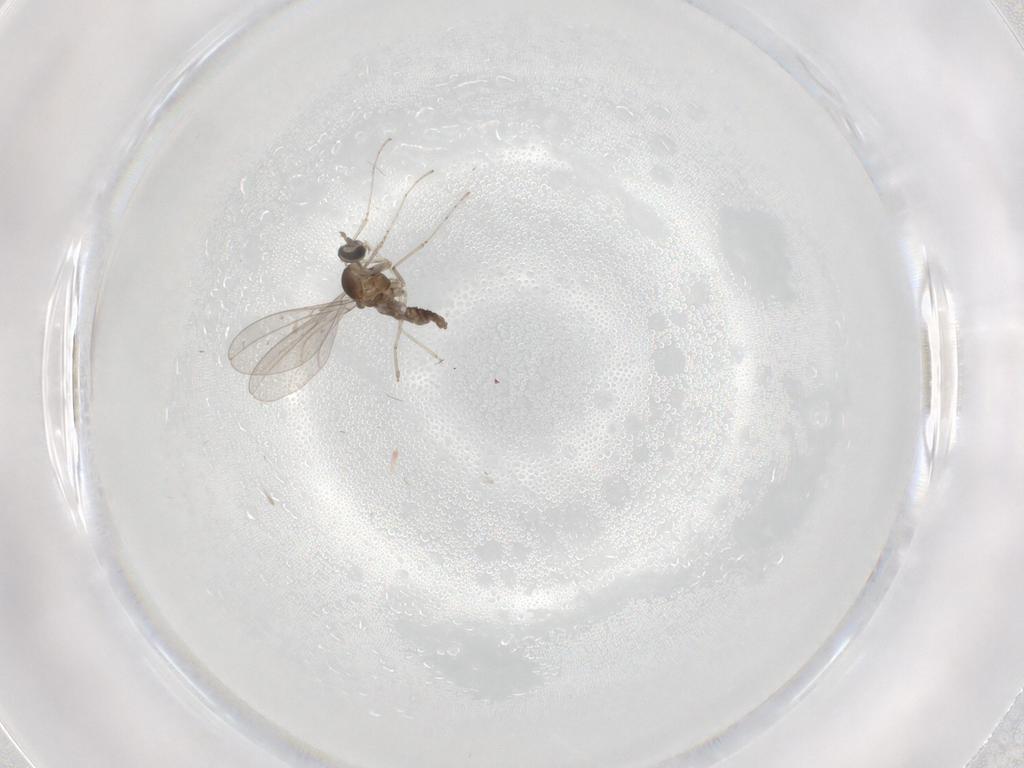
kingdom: Animalia
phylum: Arthropoda
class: Insecta
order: Diptera
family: Cecidomyiidae
